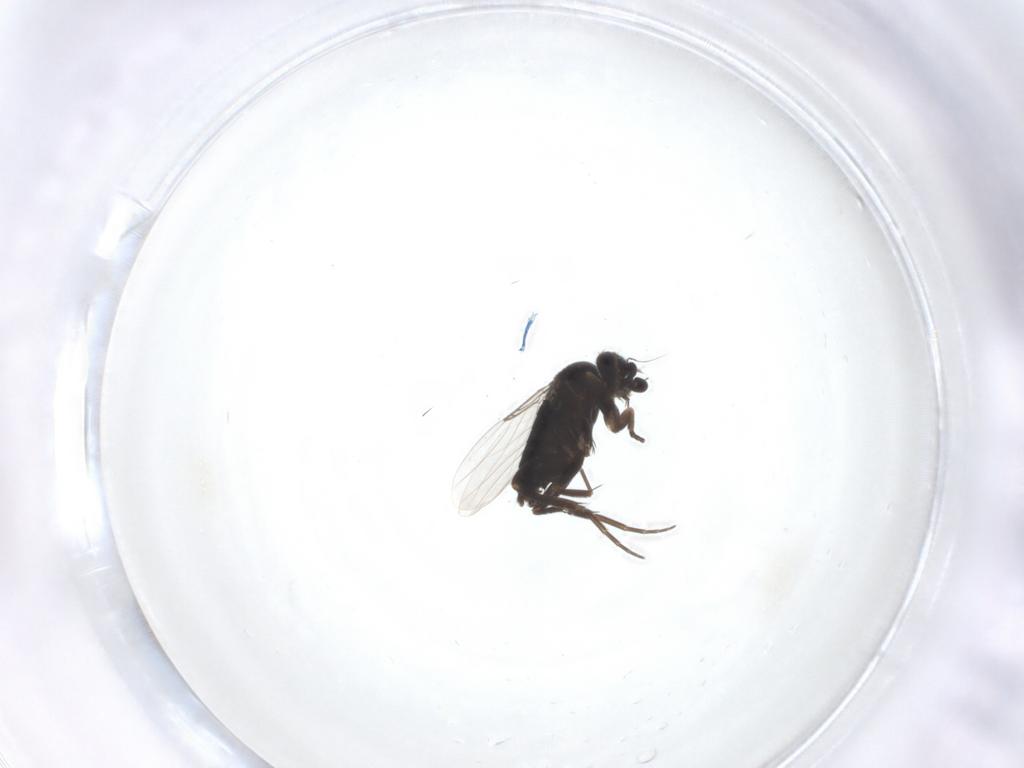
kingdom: Animalia
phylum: Arthropoda
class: Insecta
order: Diptera
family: Phoridae
